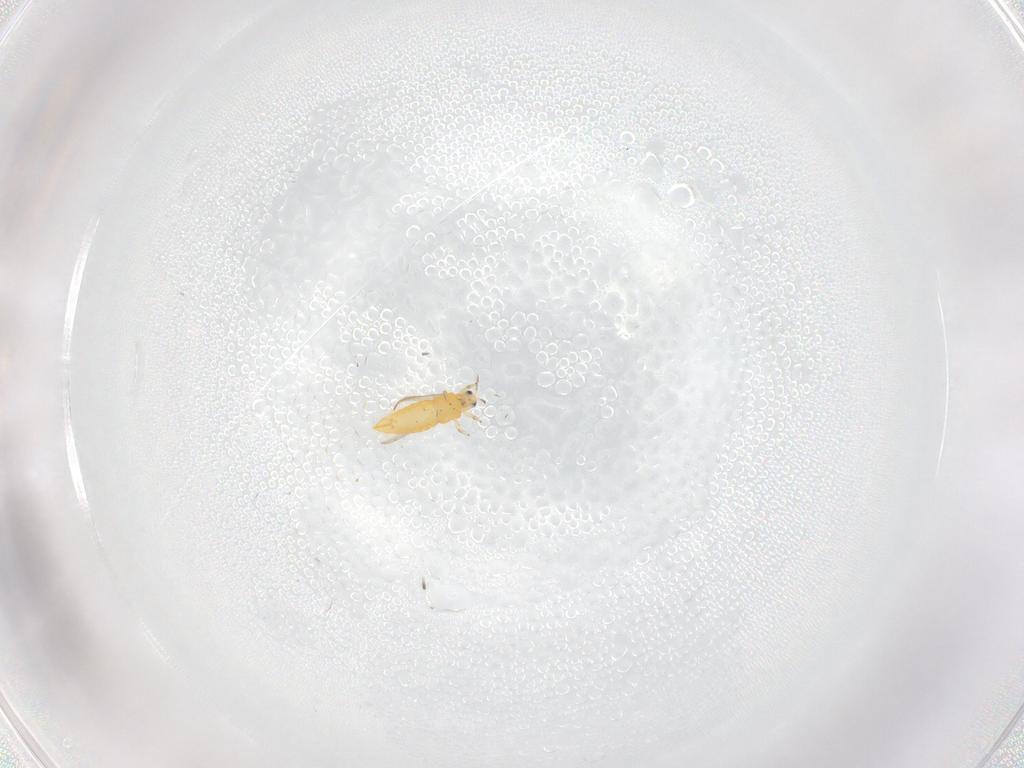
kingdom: Animalia
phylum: Arthropoda
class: Insecta
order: Thysanoptera
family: Thripidae
